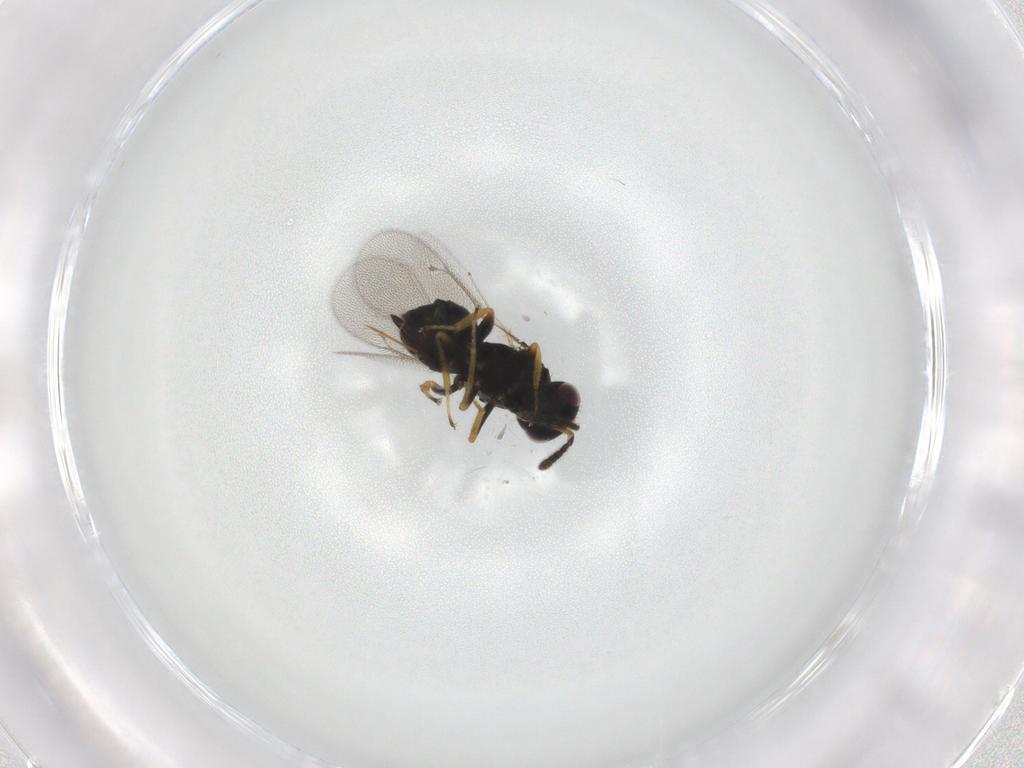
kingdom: Animalia
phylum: Arthropoda
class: Insecta
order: Hymenoptera
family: Eulophidae
